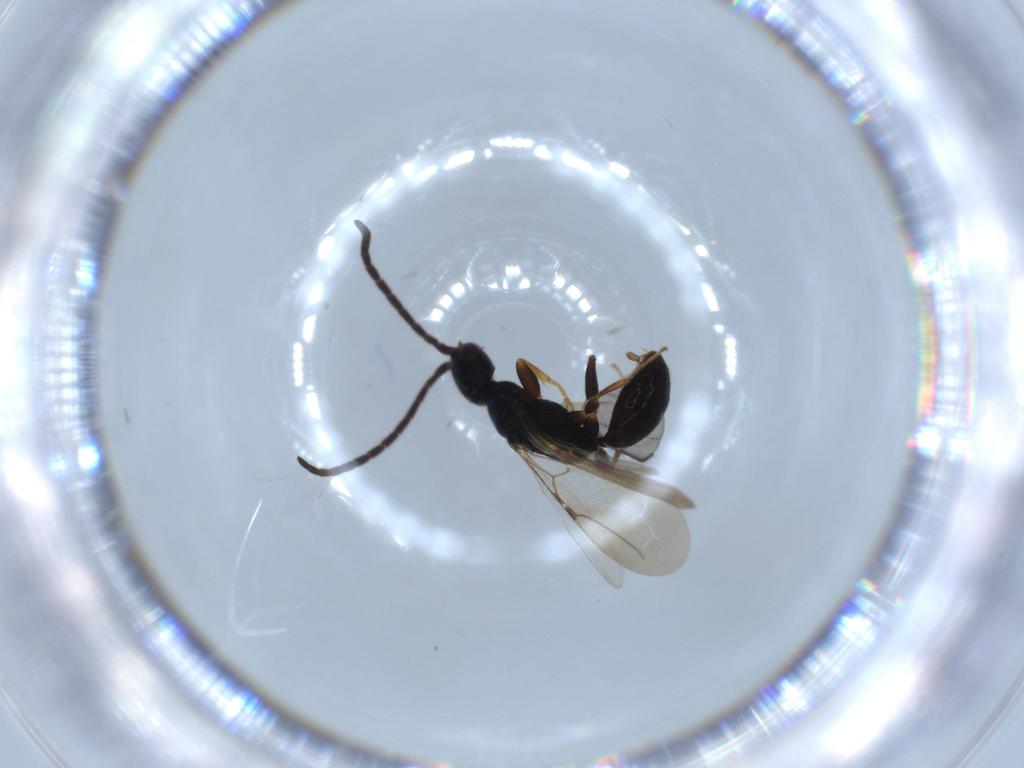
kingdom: Animalia
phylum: Arthropoda
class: Insecta
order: Hymenoptera
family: Bethylidae
